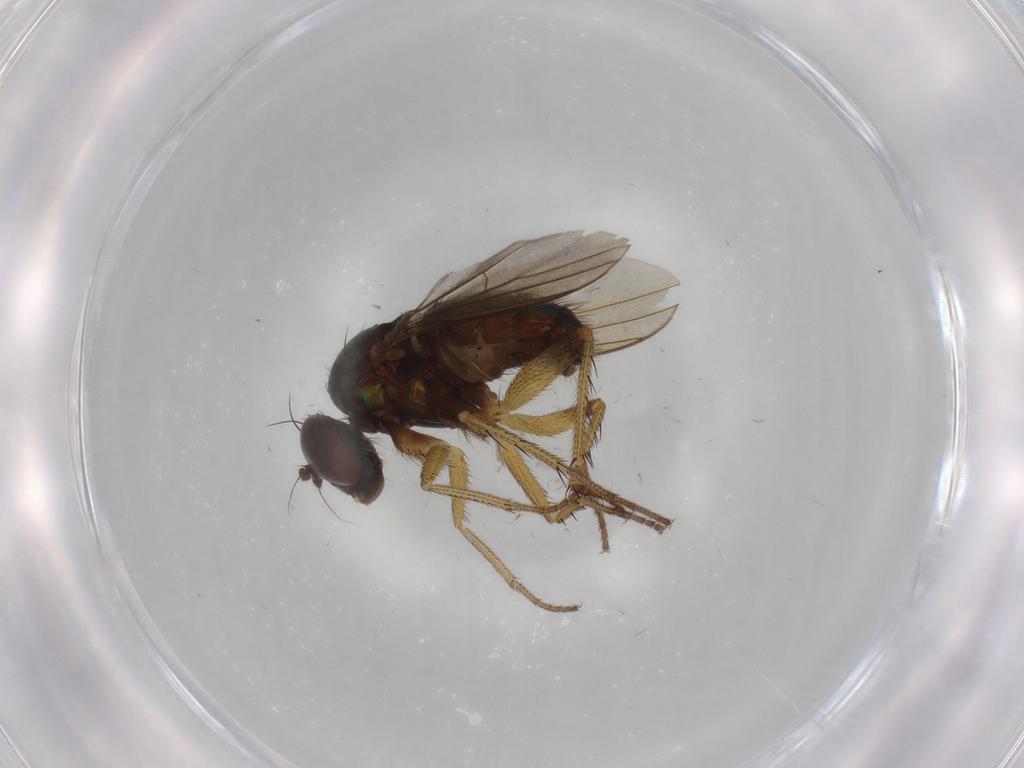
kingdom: Animalia
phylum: Arthropoda
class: Insecta
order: Diptera
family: Dolichopodidae
